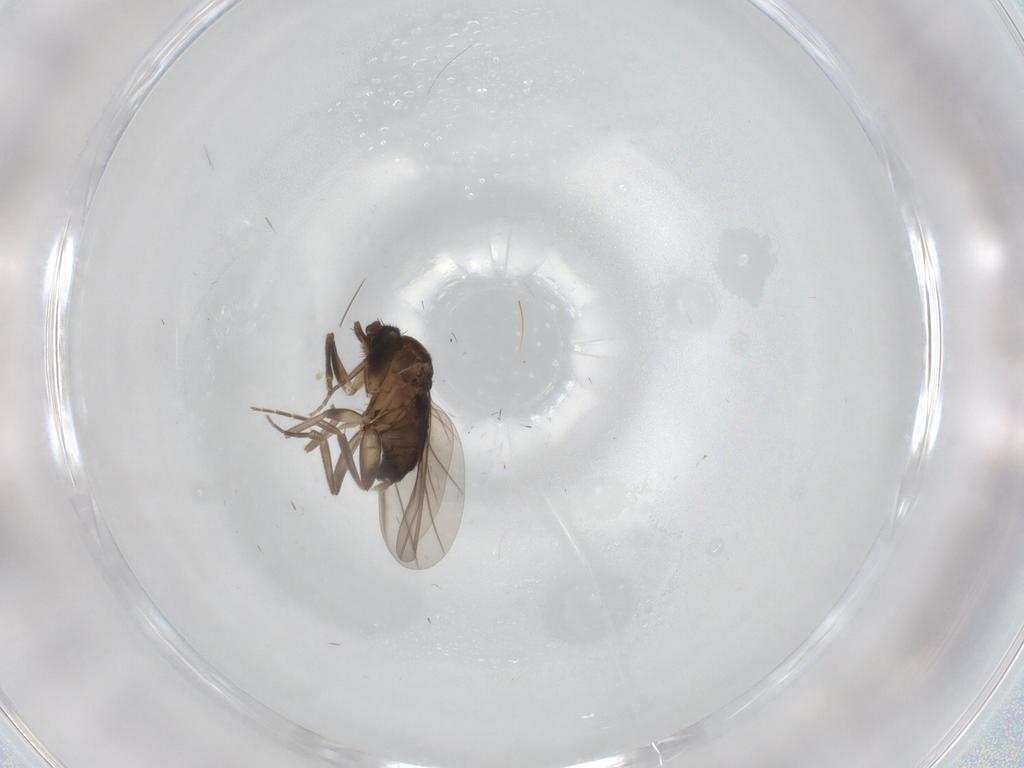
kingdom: Animalia
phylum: Arthropoda
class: Insecta
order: Diptera
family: Phoridae
